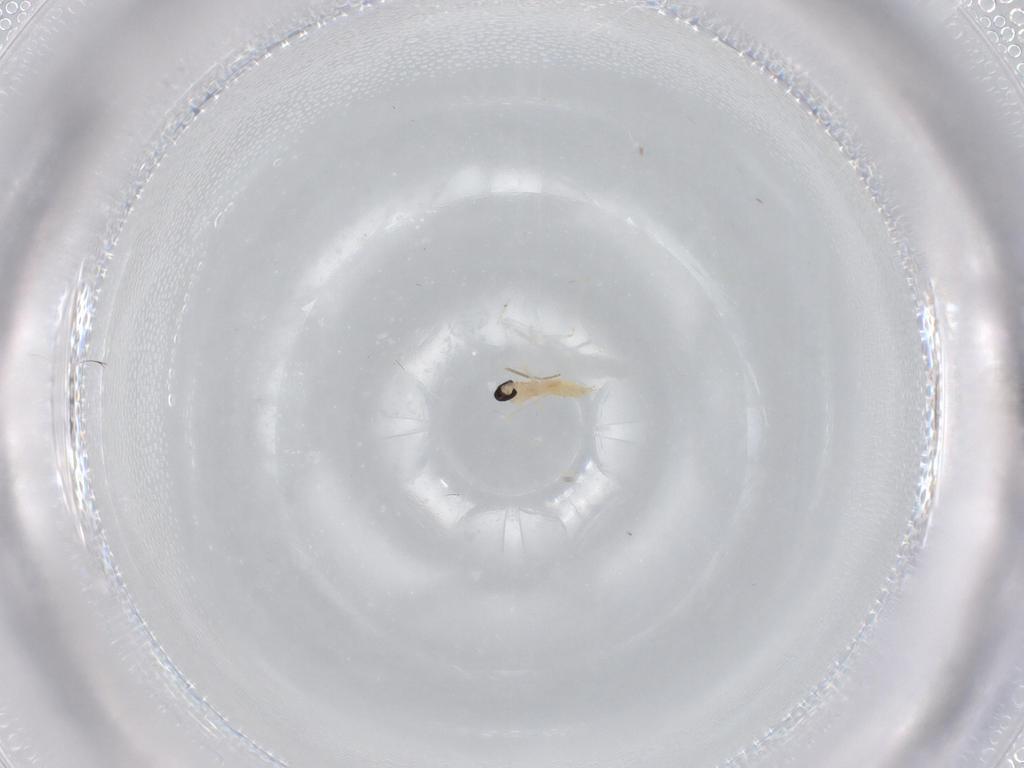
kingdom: Animalia
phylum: Arthropoda
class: Insecta
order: Diptera
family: Cecidomyiidae
